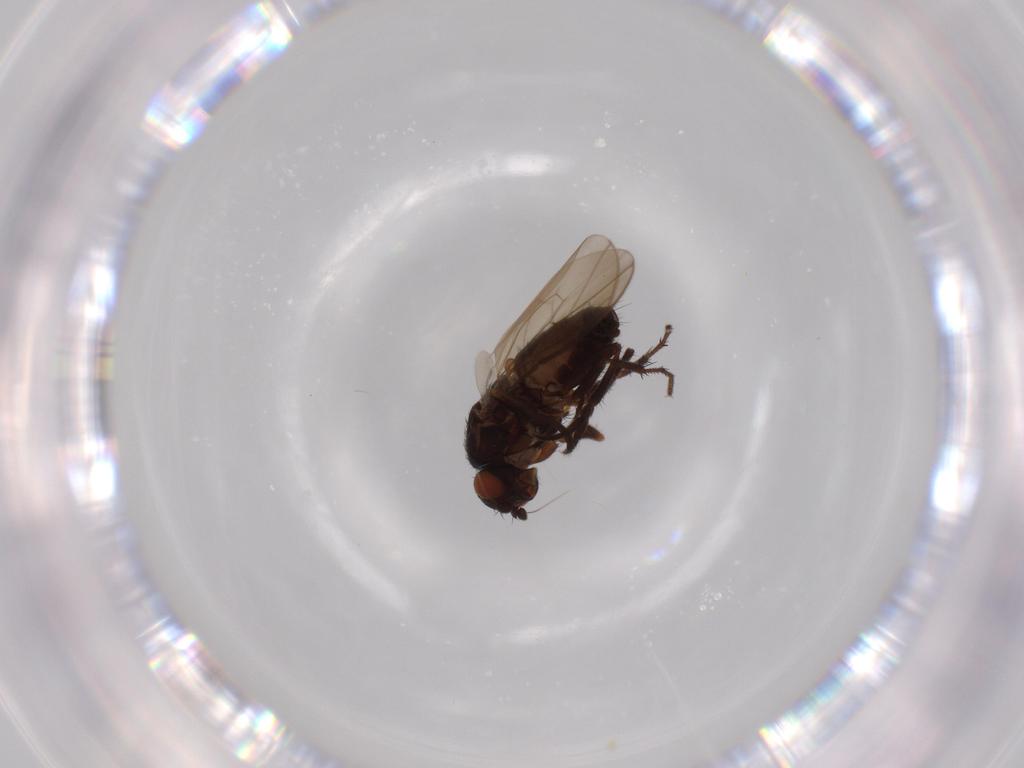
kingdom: Animalia
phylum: Arthropoda
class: Insecta
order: Diptera
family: Sphaeroceridae
